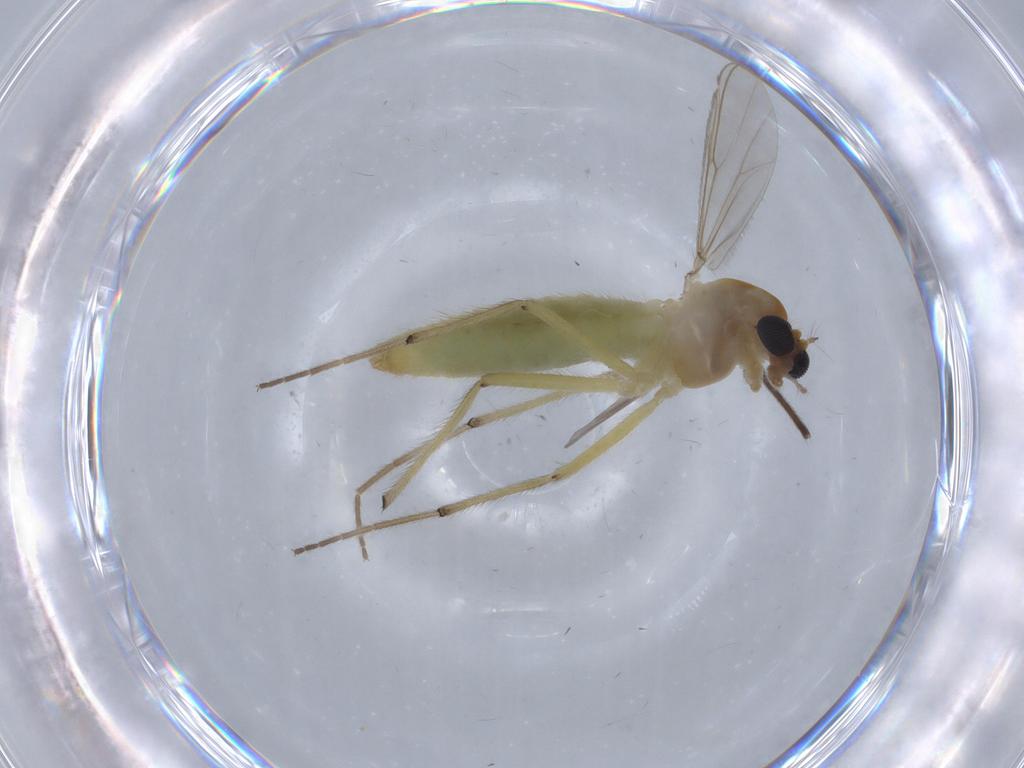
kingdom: Animalia
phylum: Arthropoda
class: Insecta
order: Diptera
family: Chironomidae
